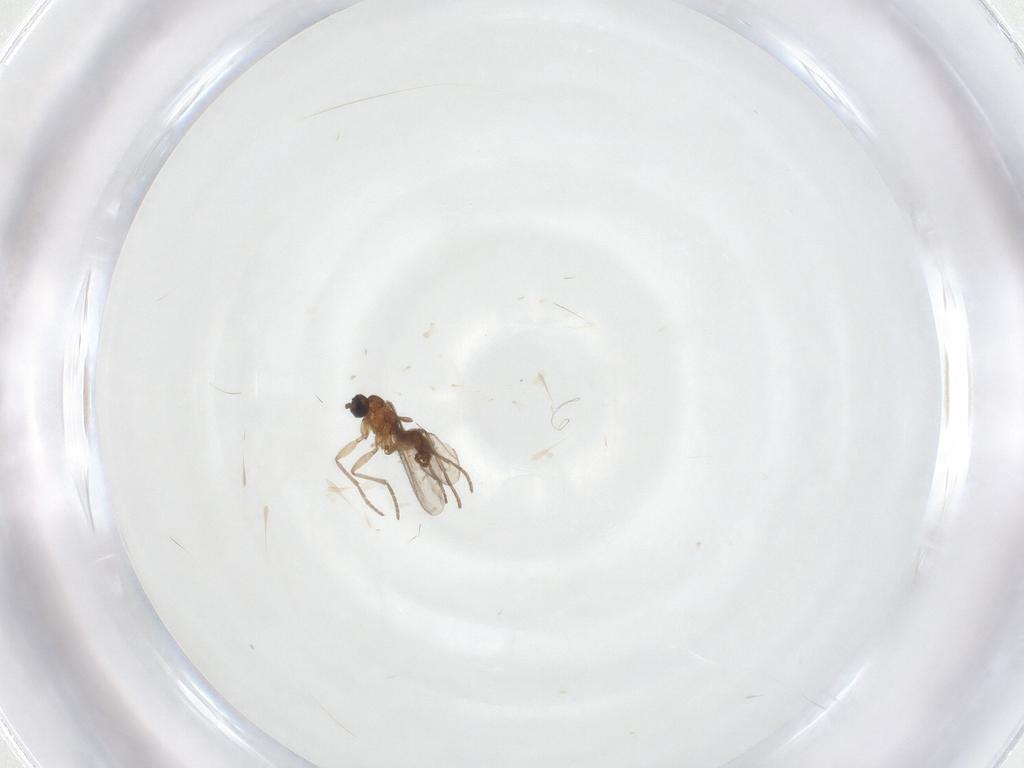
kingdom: Animalia
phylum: Arthropoda
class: Insecta
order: Diptera
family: Cecidomyiidae
